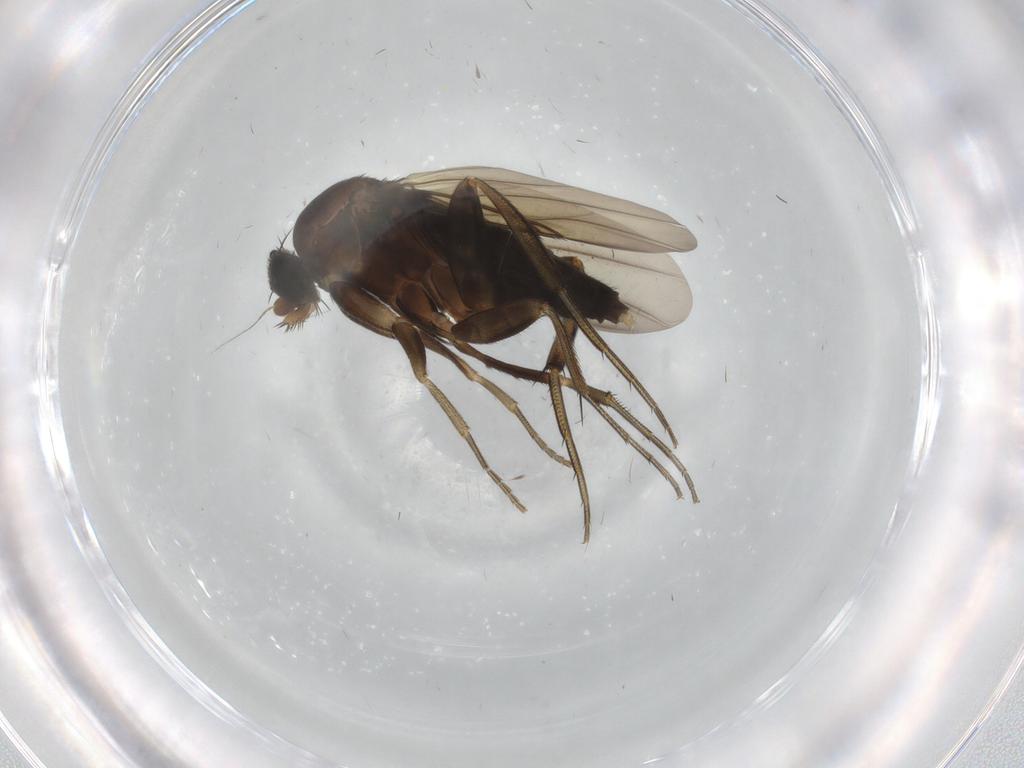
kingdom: Animalia
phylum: Arthropoda
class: Insecta
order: Diptera
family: Phoridae
